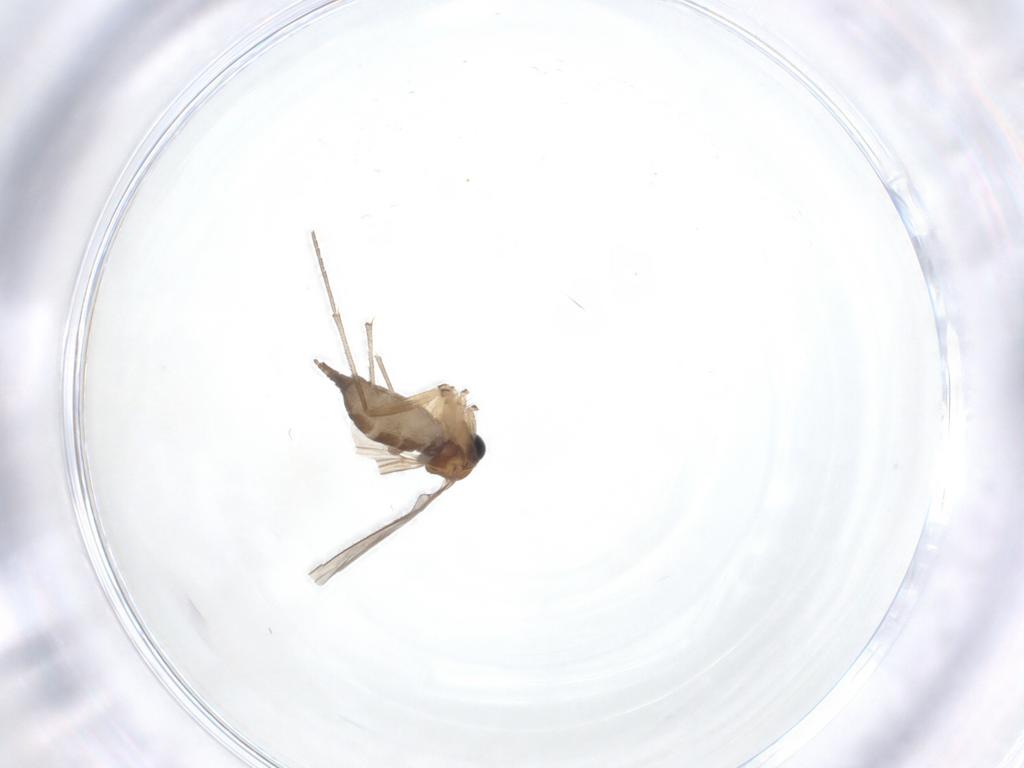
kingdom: Animalia
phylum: Arthropoda
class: Insecta
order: Diptera
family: Sciaridae
